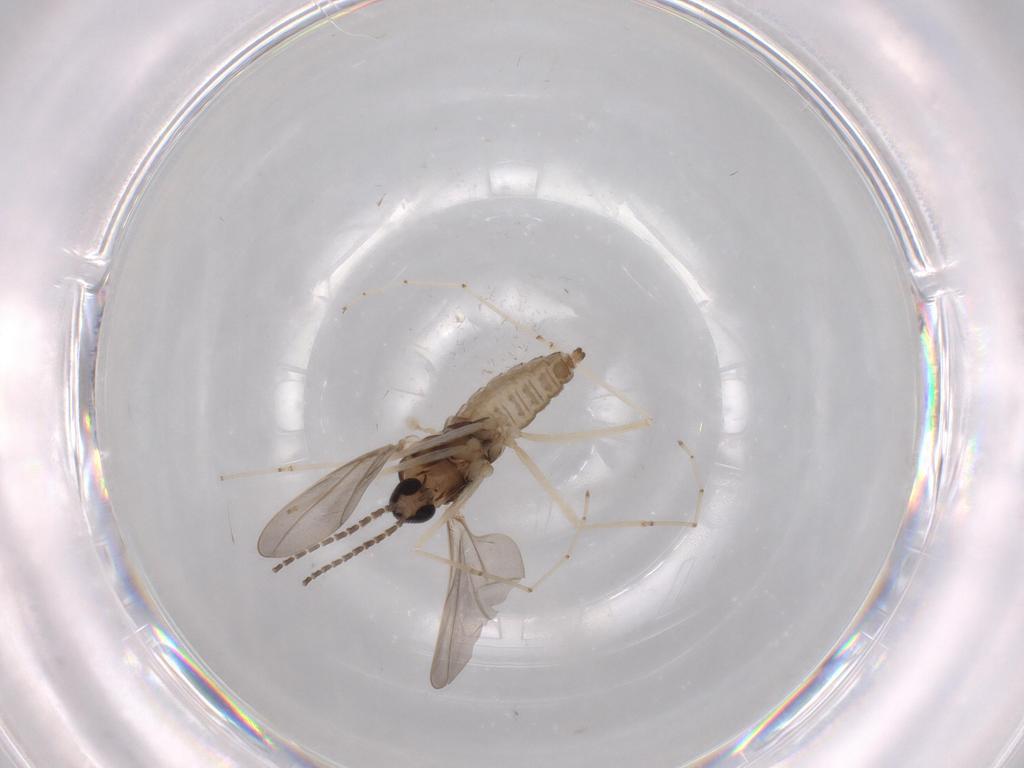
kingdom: Animalia
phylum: Arthropoda
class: Insecta
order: Diptera
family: Cecidomyiidae
